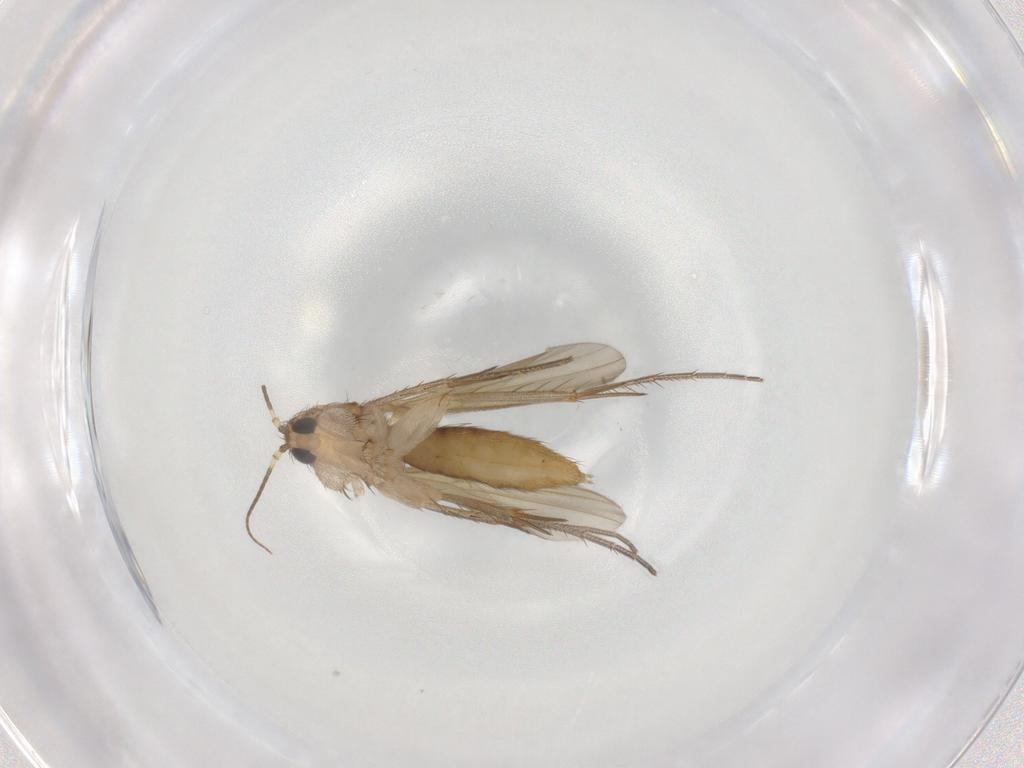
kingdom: Animalia
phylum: Arthropoda
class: Insecta
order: Diptera
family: Mycetophilidae
